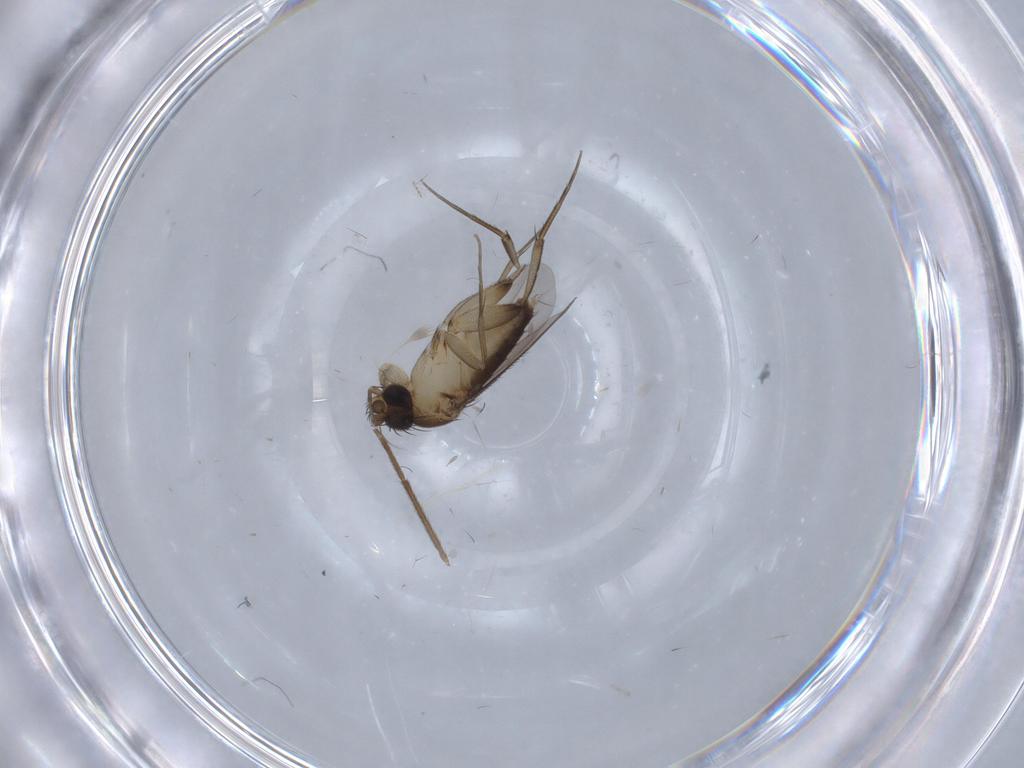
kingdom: Animalia
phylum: Arthropoda
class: Insecta
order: Diptera
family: Phoridae
